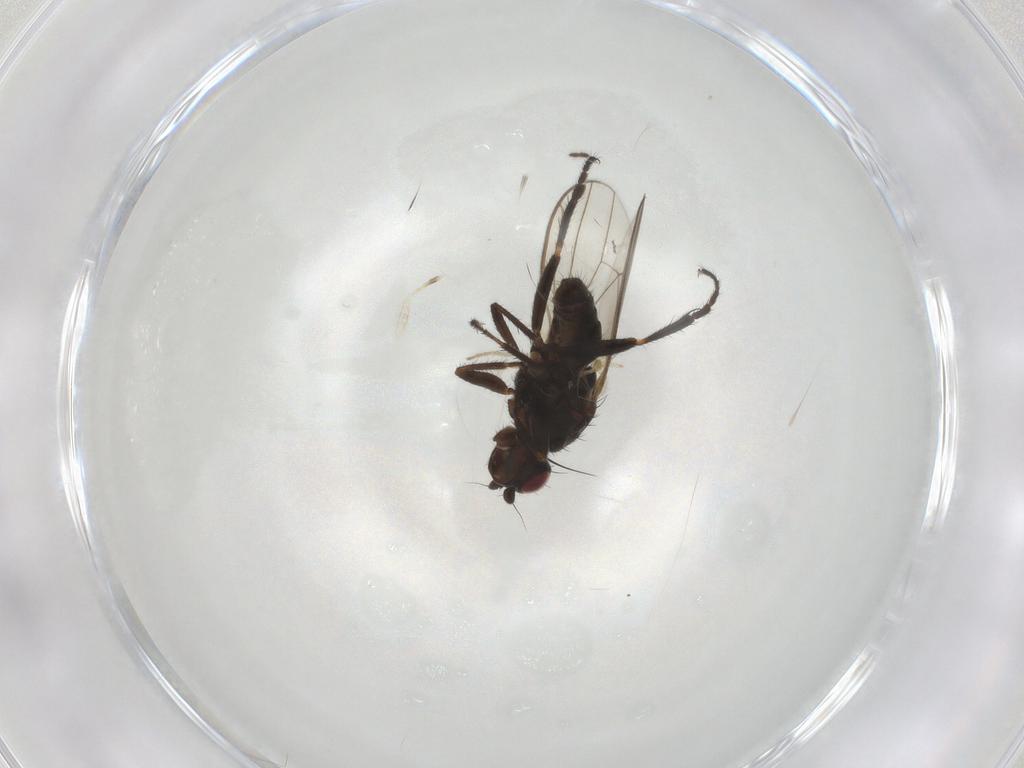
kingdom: Animalia
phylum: Arthropoda
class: Insecta
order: Diptera
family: Sphaeroceridae
